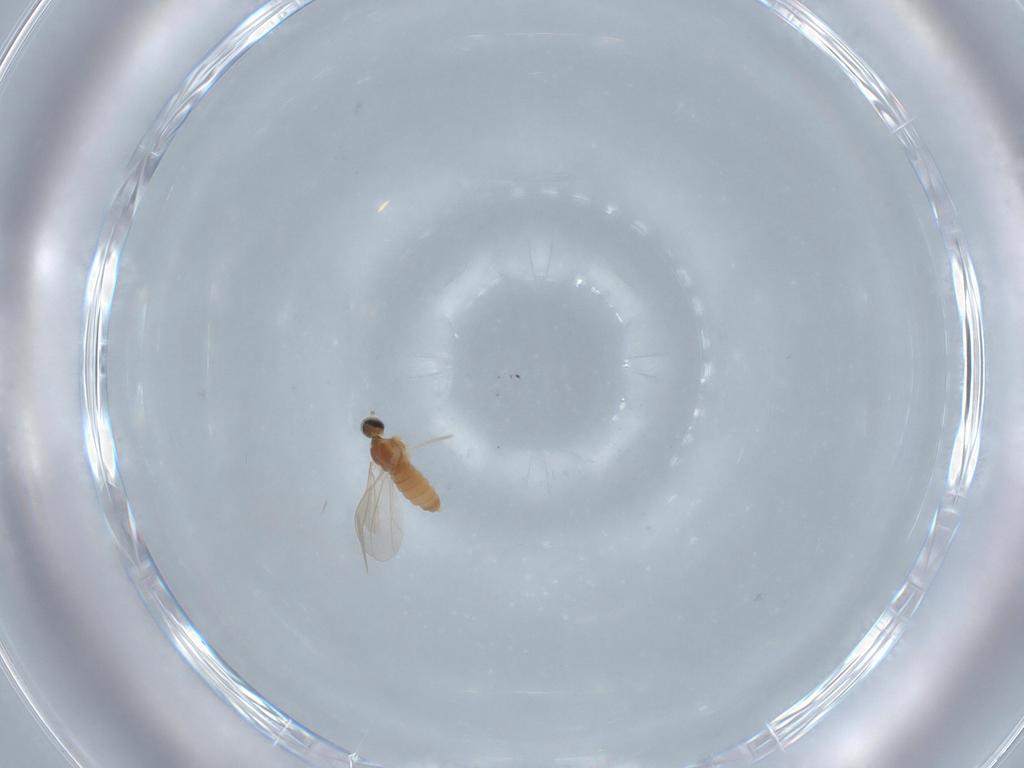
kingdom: Animalia
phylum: Arthropoda
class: Insecta
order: Diptera
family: Cecidomyiidae
